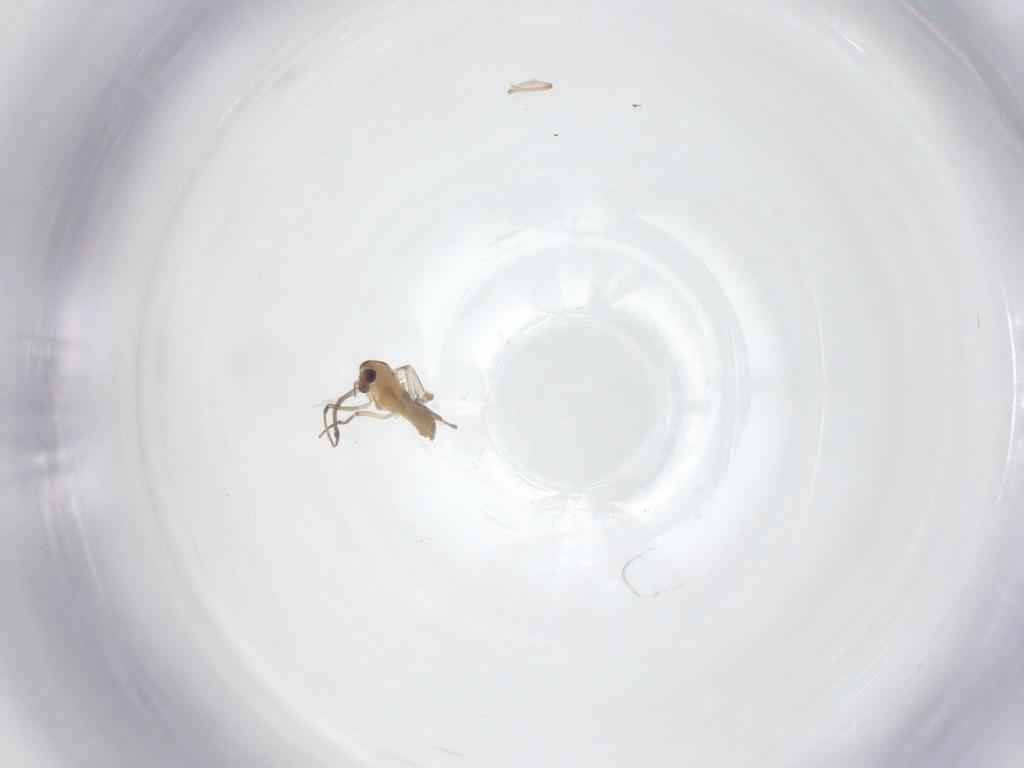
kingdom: Animalia
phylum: Arthropoda
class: Insecta
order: Diptera
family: Chironomidae
